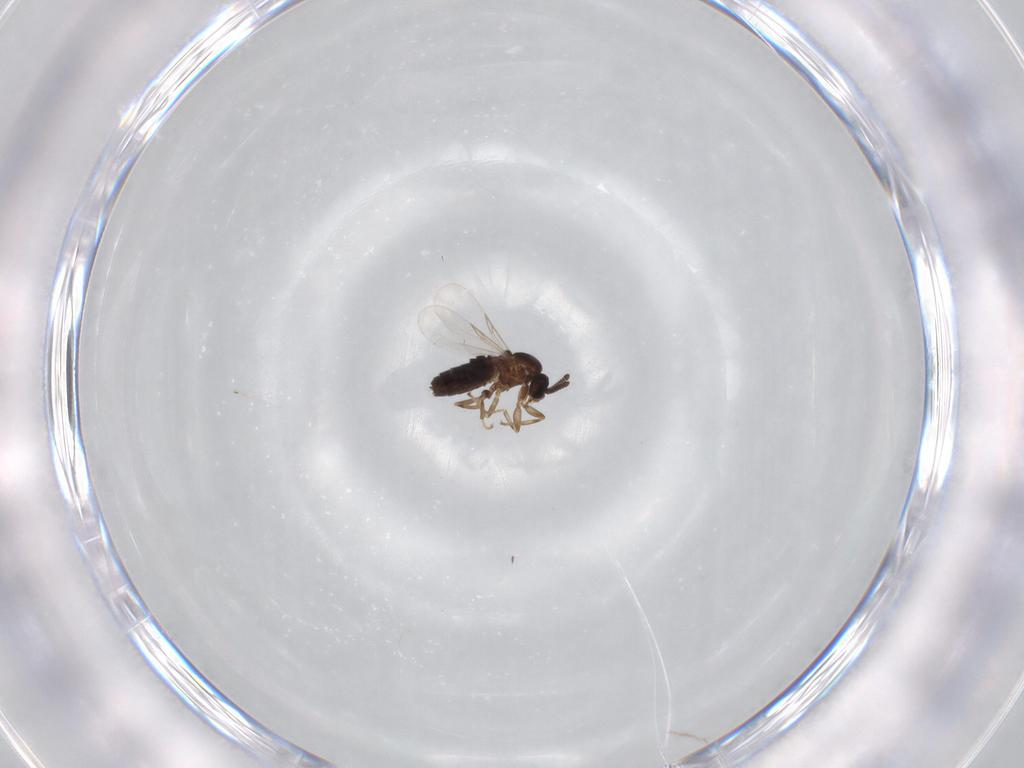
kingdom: Animalia
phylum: Arthropoda
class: Insecta
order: Diptera
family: Scatopsidae
